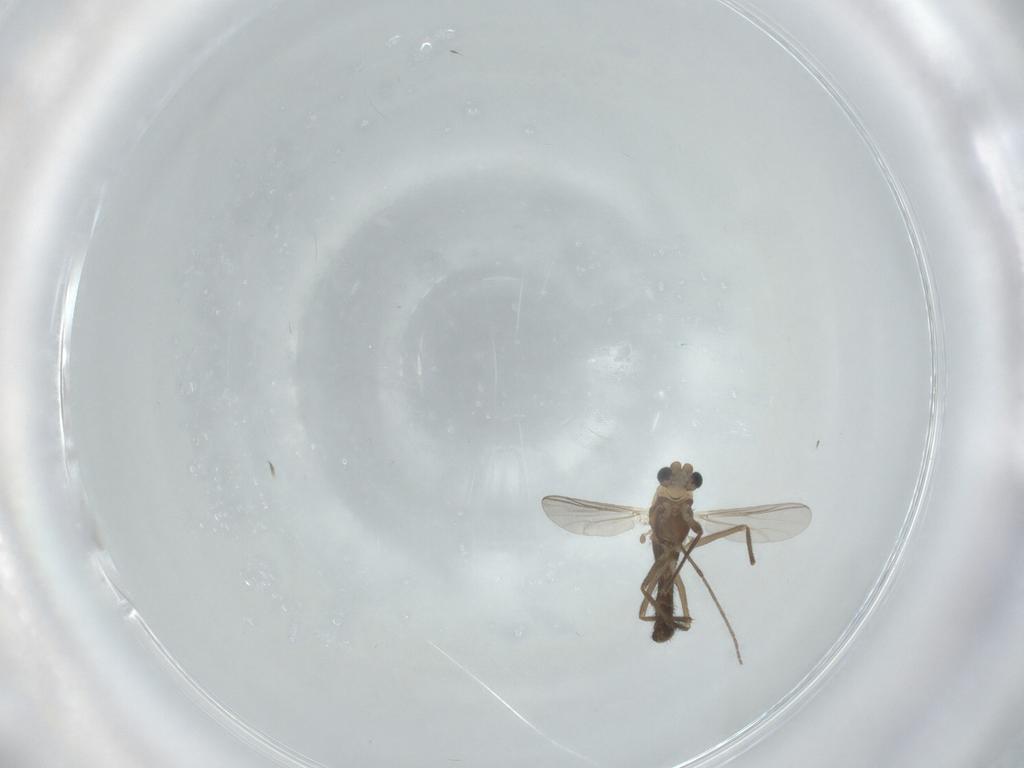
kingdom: Animalia
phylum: Arthropoda
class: Insecta
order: Diptera
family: Chironomidae
